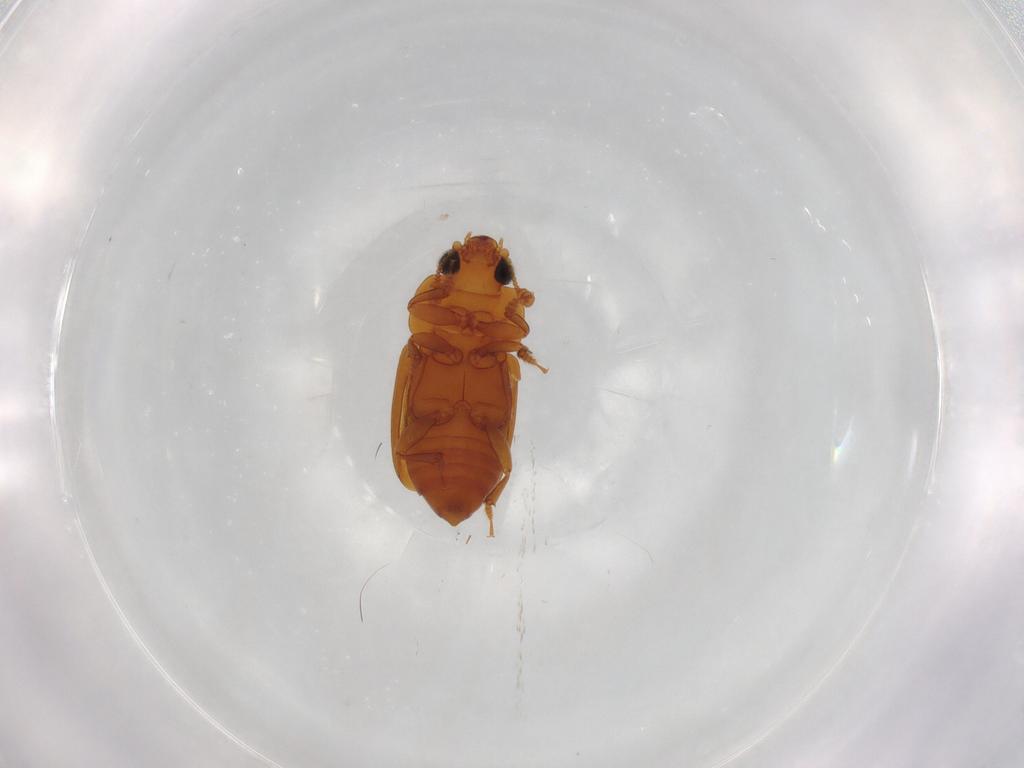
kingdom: Animalia
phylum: Arthropoda
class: Insecta
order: Coleoptera
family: Nitidulidae
